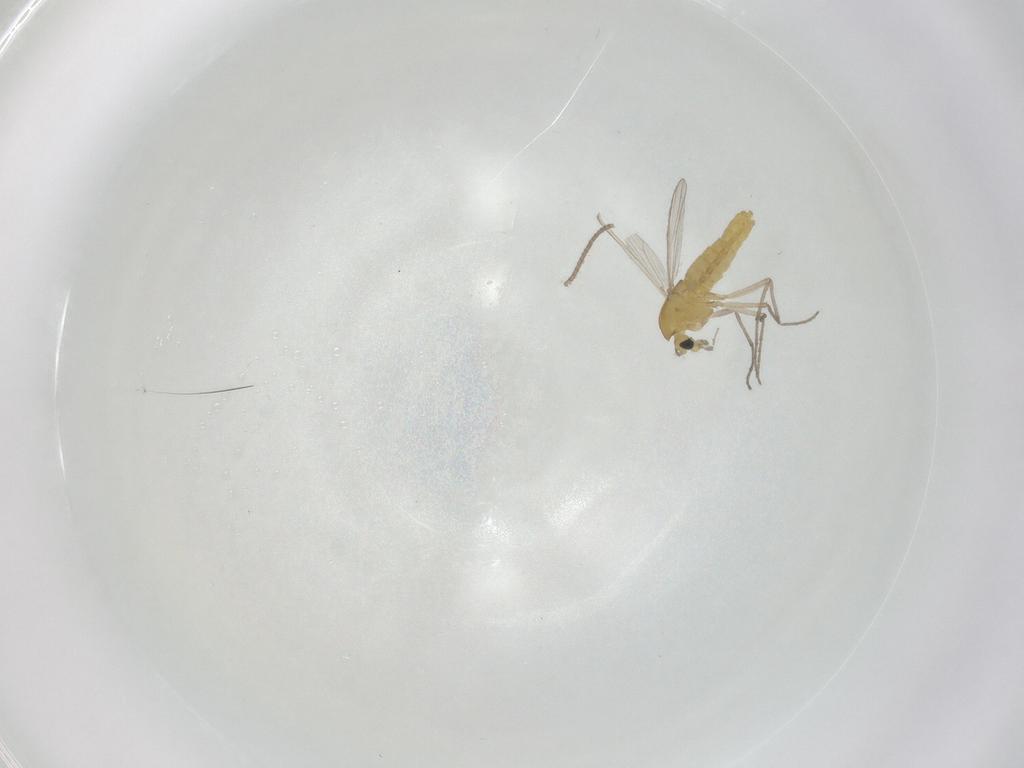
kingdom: Animalia
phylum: Arthropoda
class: Insecta
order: Diptera
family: Chironomidae
